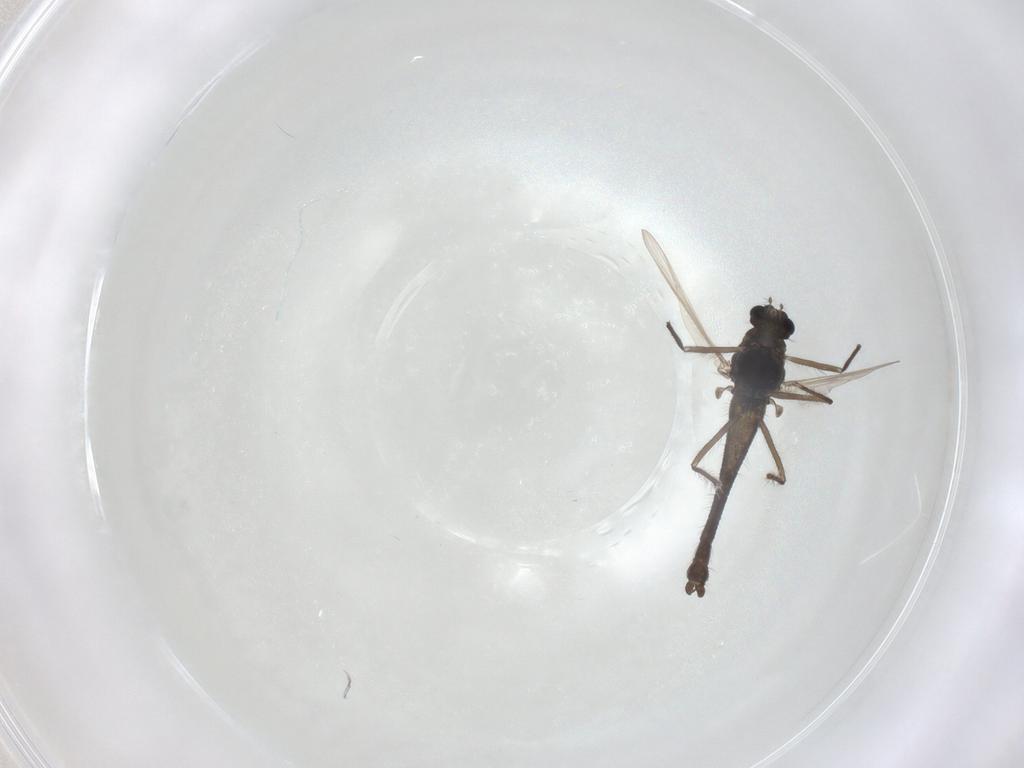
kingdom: Animalia
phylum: Arthropoda
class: Insecta
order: Diptera
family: Chironomidae
